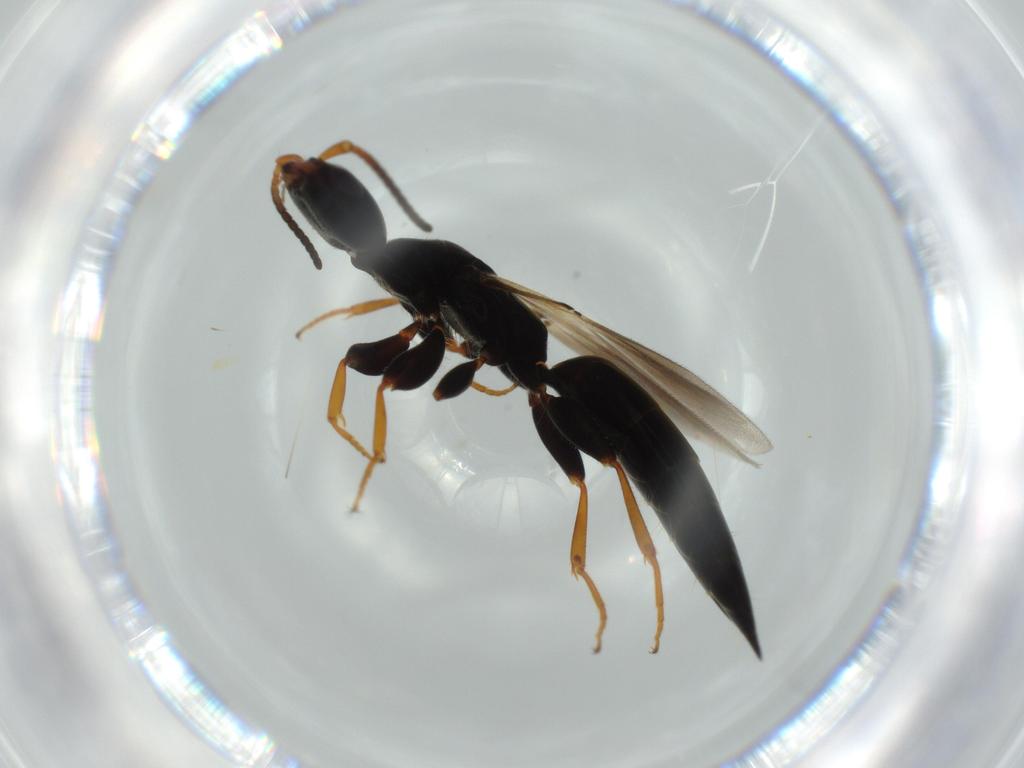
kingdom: Animalia
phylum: Arthropoda
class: Insecta
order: Hymenoptera
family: Bethylidae
